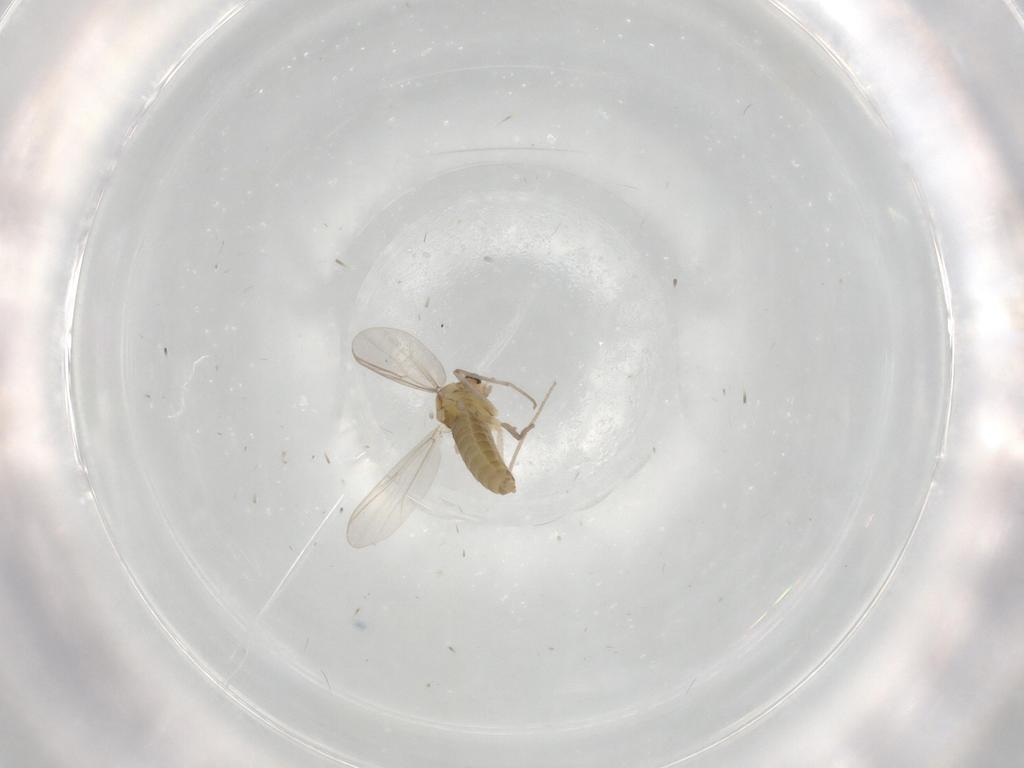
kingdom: Animalia
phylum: Arthropoda
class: Insecta
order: Diptera
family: Chironomidae
